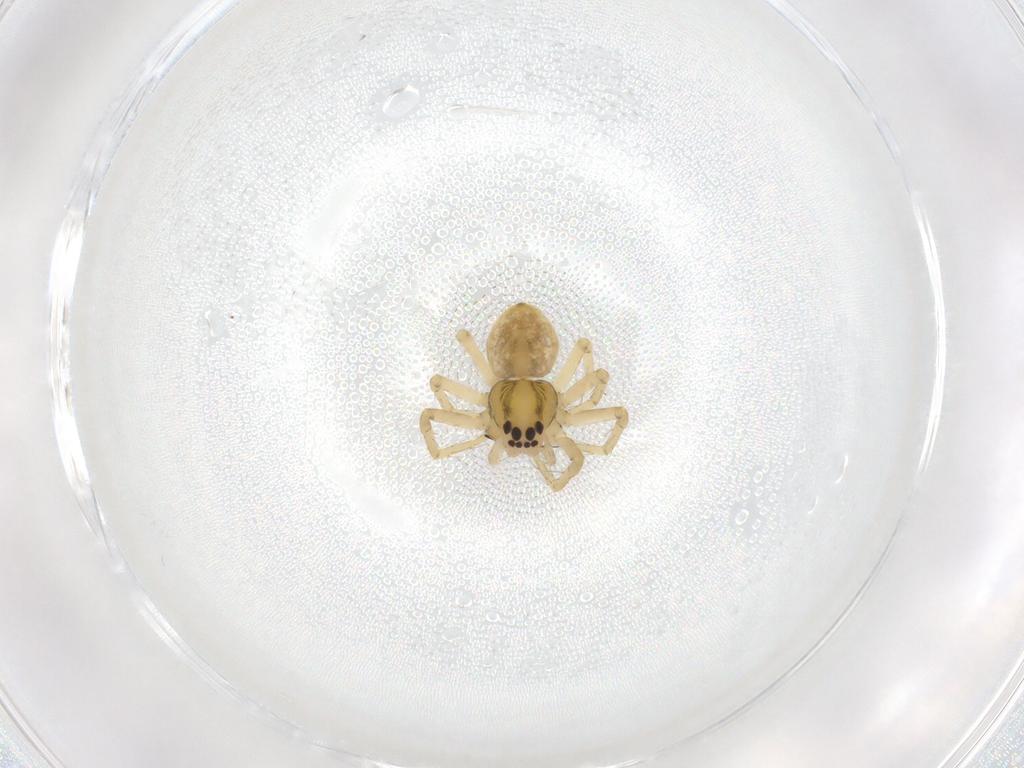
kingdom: Animalia
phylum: Arthropoda
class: Arachnida
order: Araneae
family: Pisauridae
